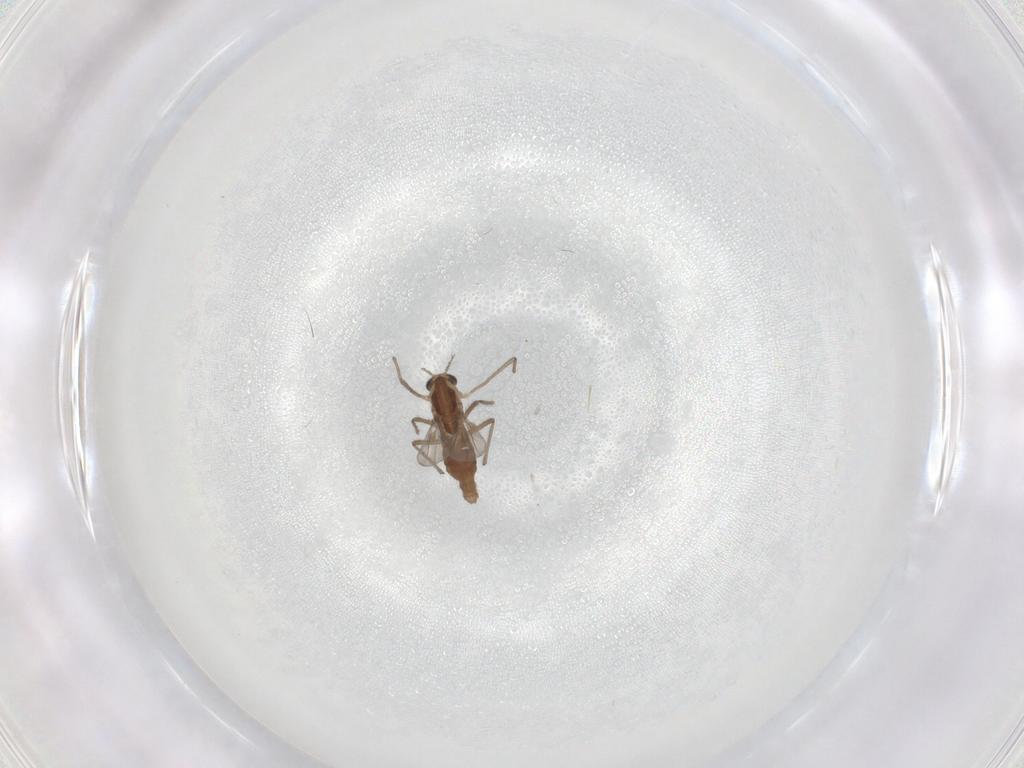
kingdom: Animalia
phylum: Arthropoda
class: Insecta
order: Diptera
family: Chironomidae
